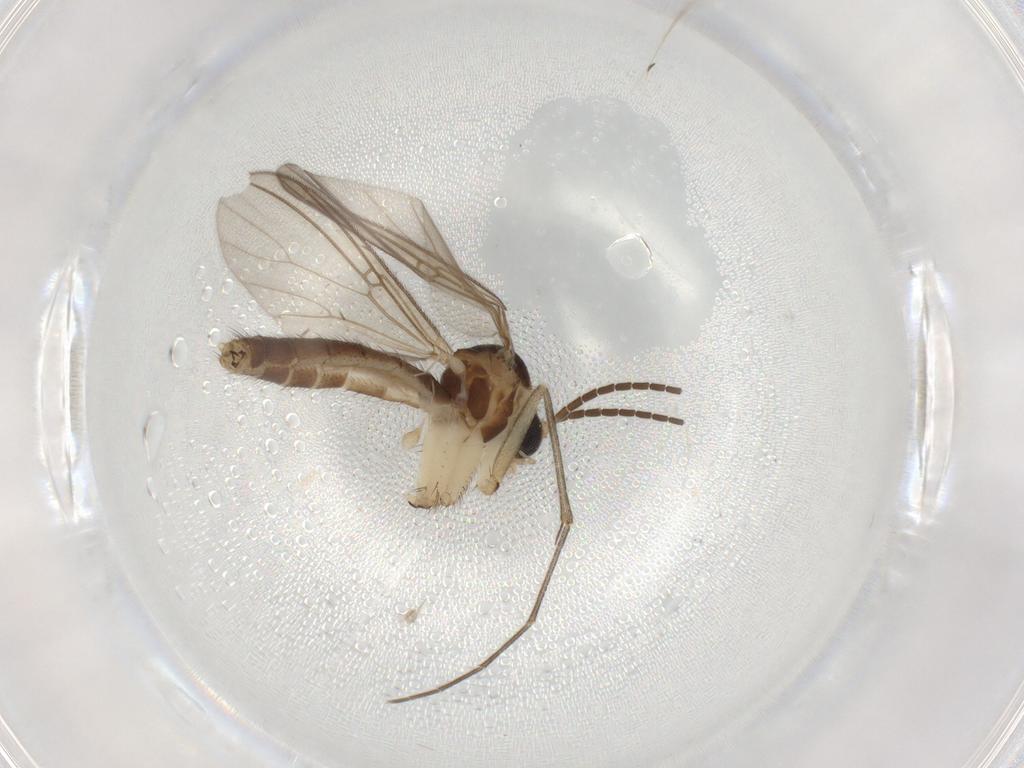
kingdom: Animalia
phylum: Arthropoda
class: Insecta
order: Diptera
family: Mycetophilidae
